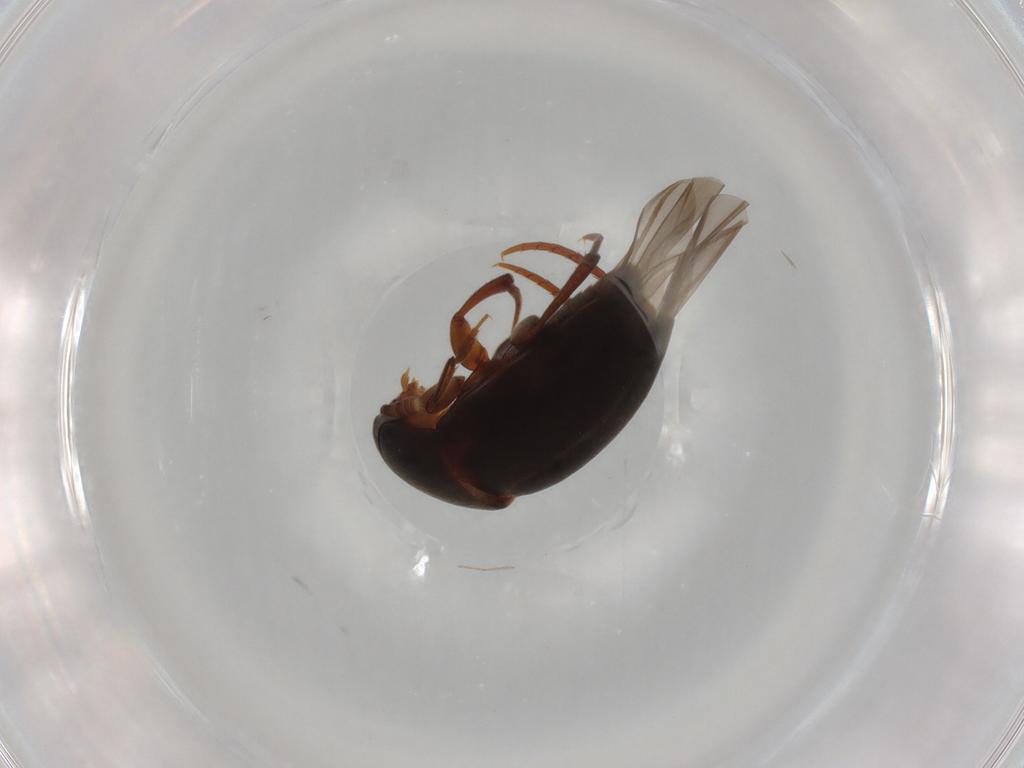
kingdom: Animalia
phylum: Arthropoda
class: Insecta
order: Coleoptera
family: Leiodidae
